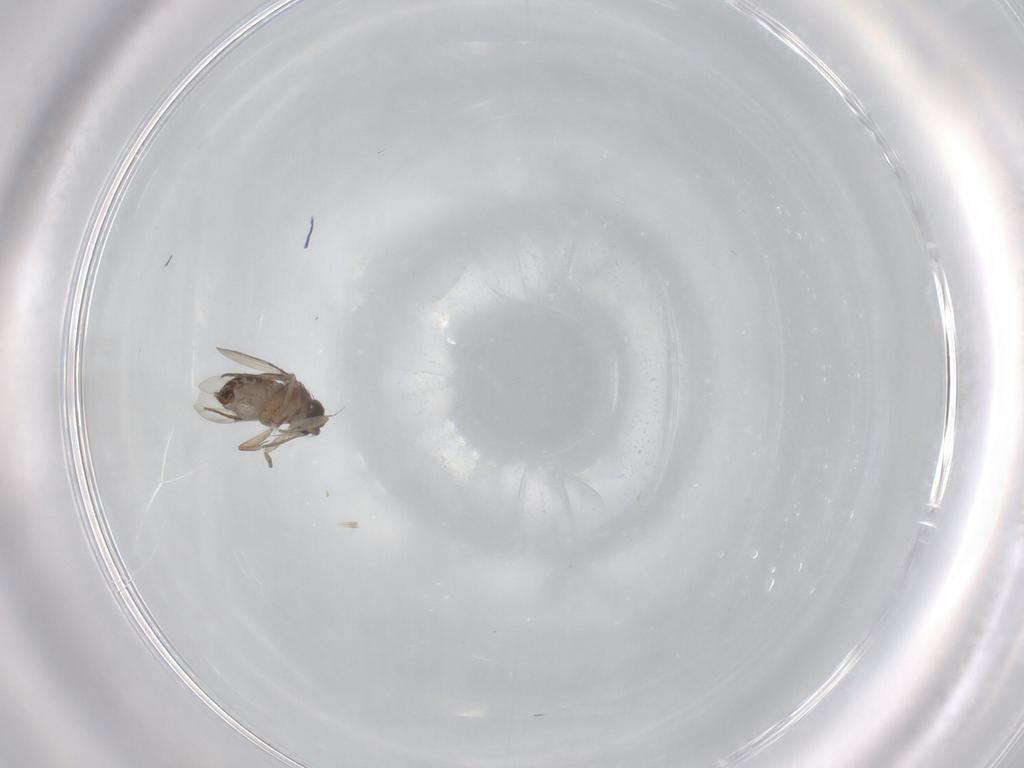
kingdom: Animalia
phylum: Arthropoda
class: Insecta
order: Diptera
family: Phoridae
